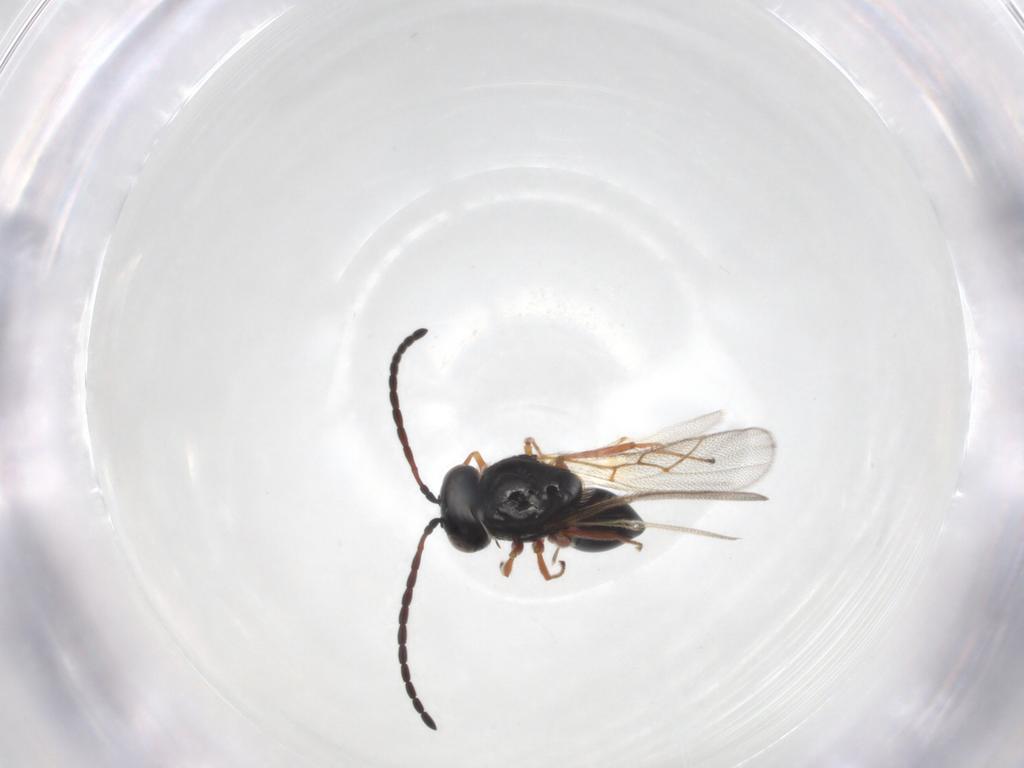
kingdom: Animalia
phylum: Arthropoda
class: Insecta
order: Hymenoptera
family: Figitidae
